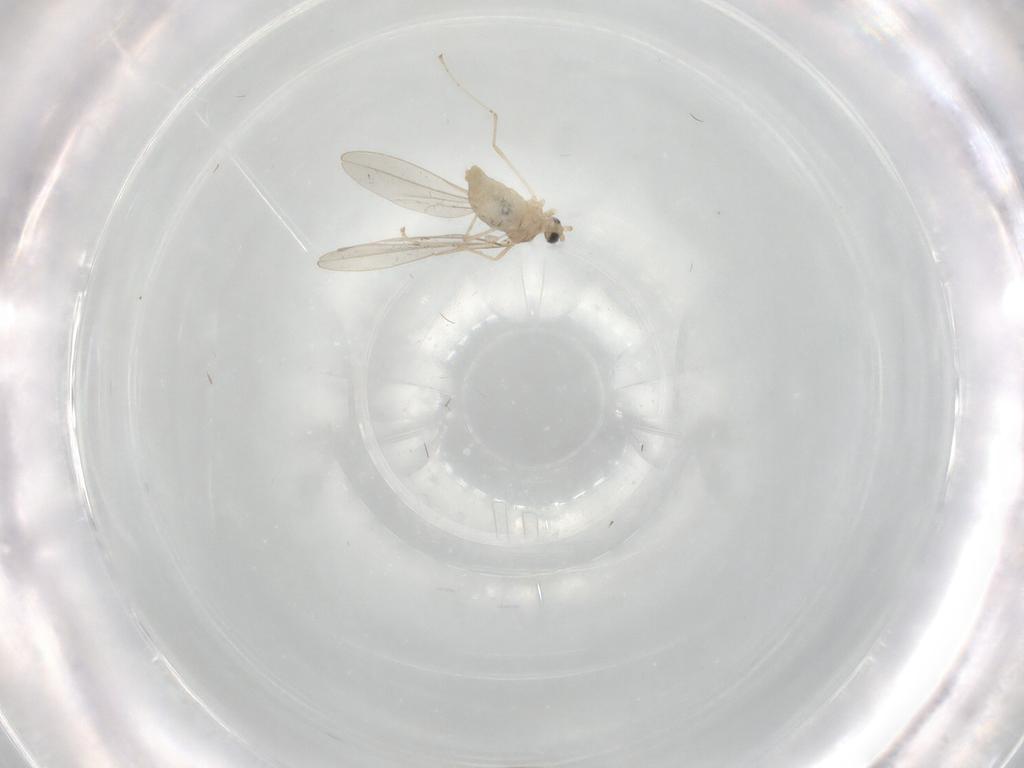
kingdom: Animalia
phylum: Arthropoda
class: Insecta
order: Diptera
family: Cecidomyiidae
